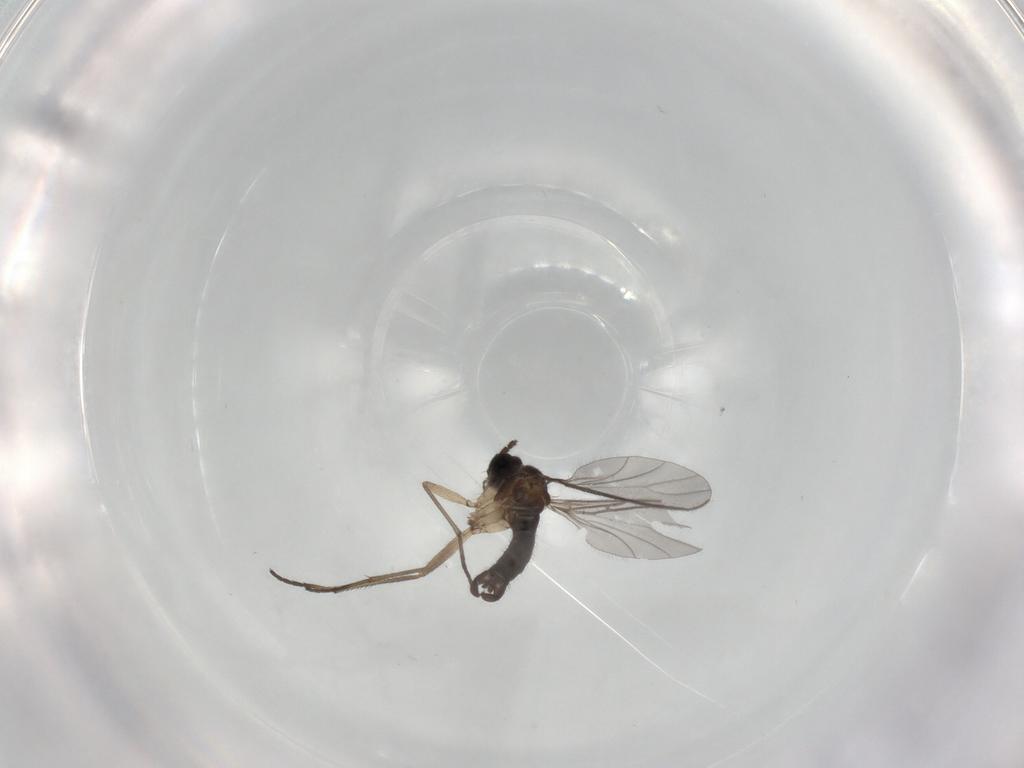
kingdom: Animalia
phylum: Arthropoda
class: Insecta
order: Diptera
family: Sciaridae
